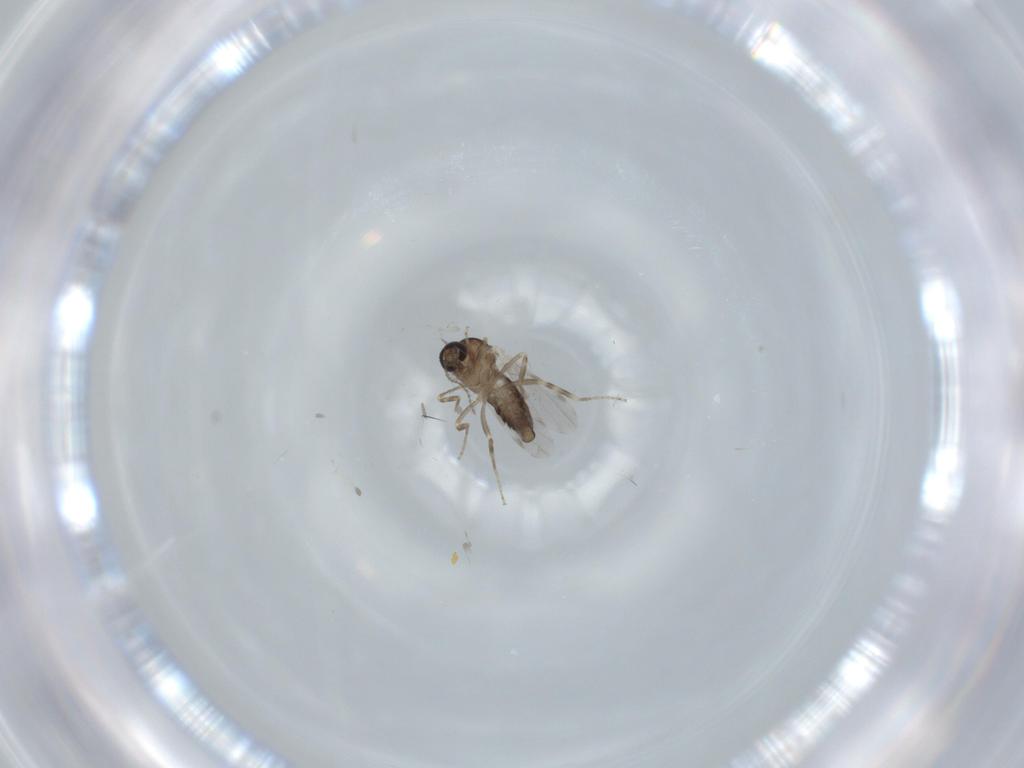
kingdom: Animalia
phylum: Arthropoda
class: Insecta
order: Diptera
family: Ceratopogonidae
